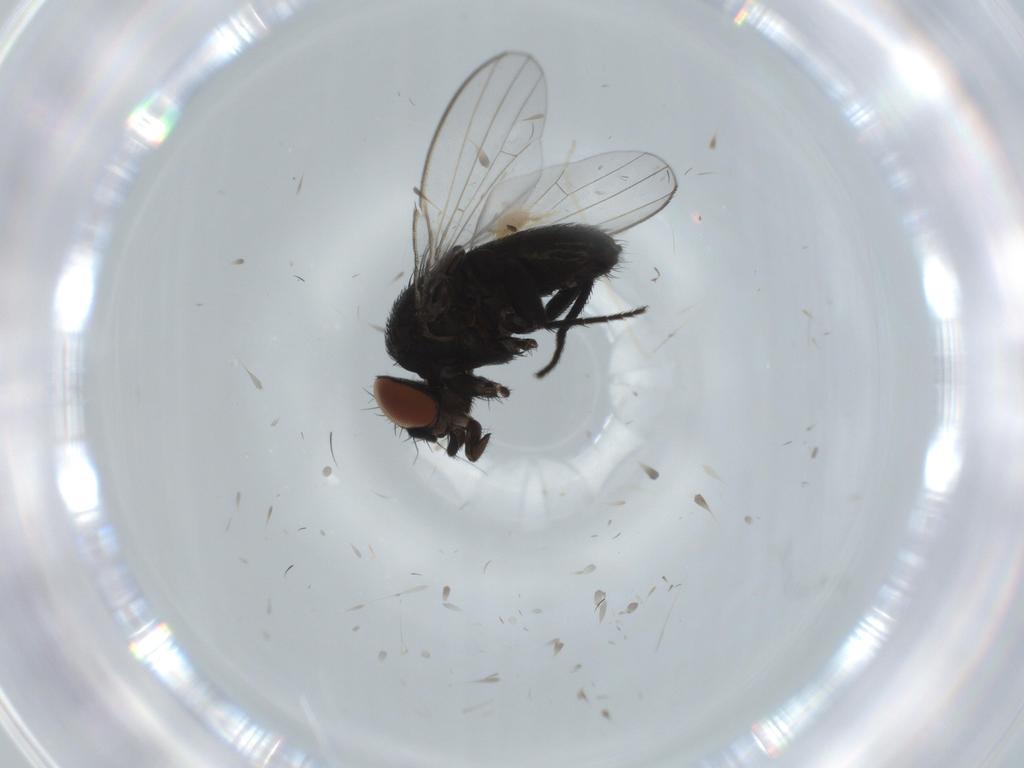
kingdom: Animalia
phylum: Arthropoda
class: Insecta
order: Diptera
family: Milichiidae
